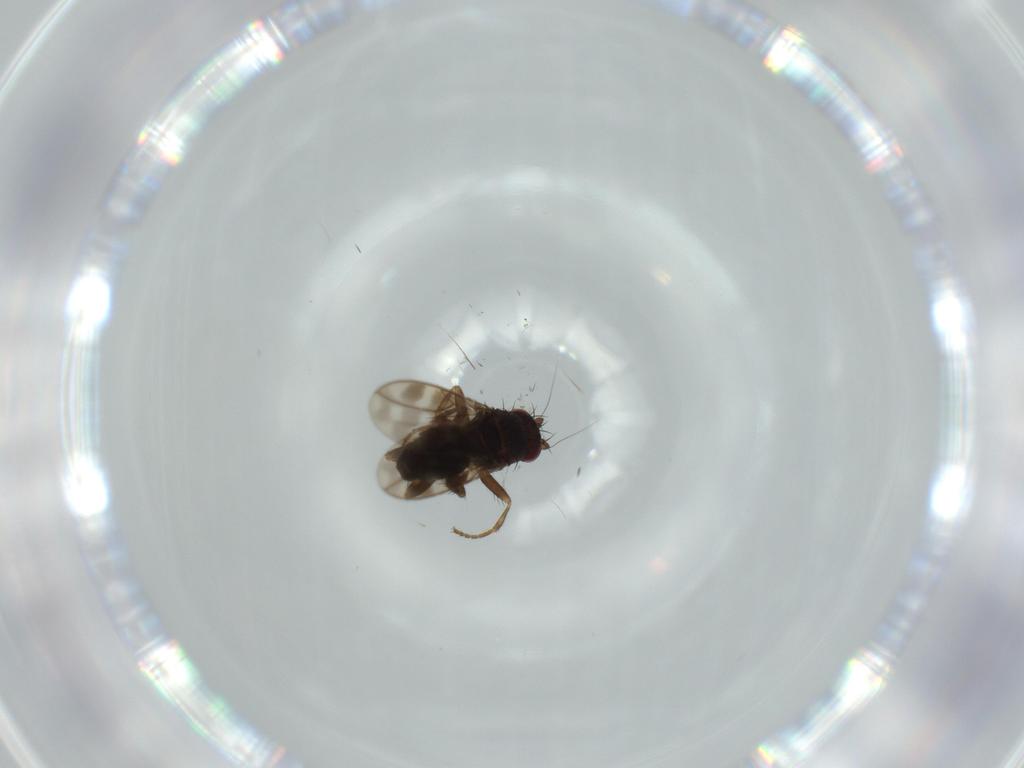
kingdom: Animalia
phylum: Arthropoda
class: Insecta
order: Diptera
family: Sphaeroceridae
